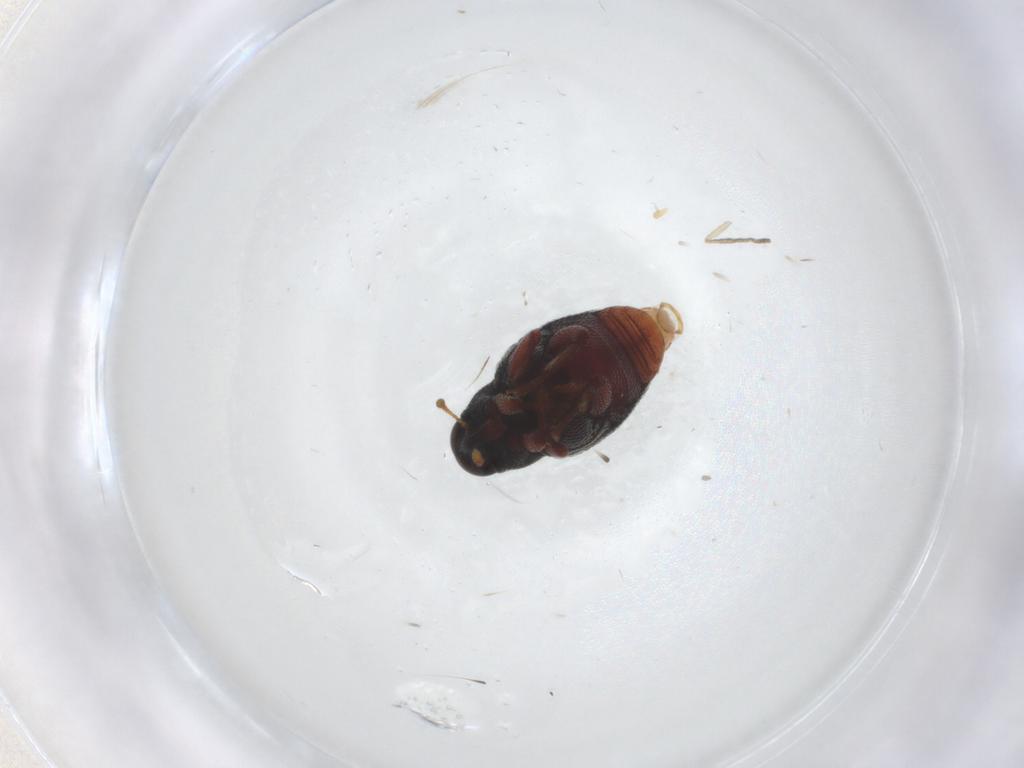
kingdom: Animalia
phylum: Arthropoda
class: Insecta
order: Coleoptera
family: Curculionidae
